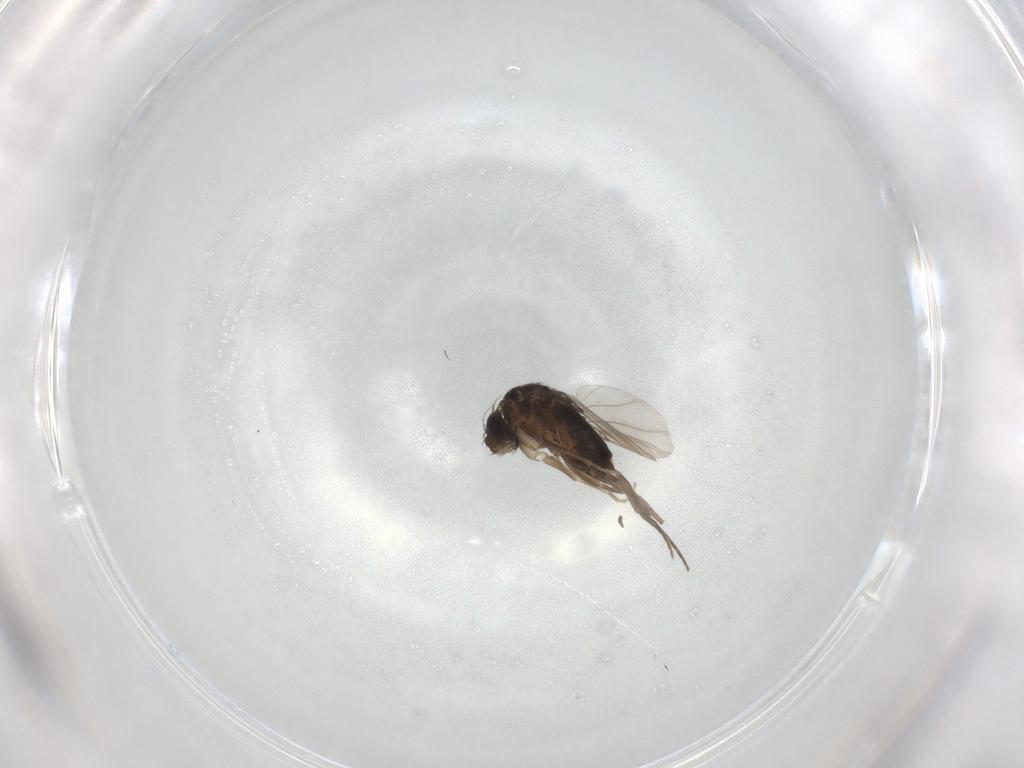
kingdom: Animalia
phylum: Arthropoda
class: Insecta
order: Diptera
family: Phoridae
